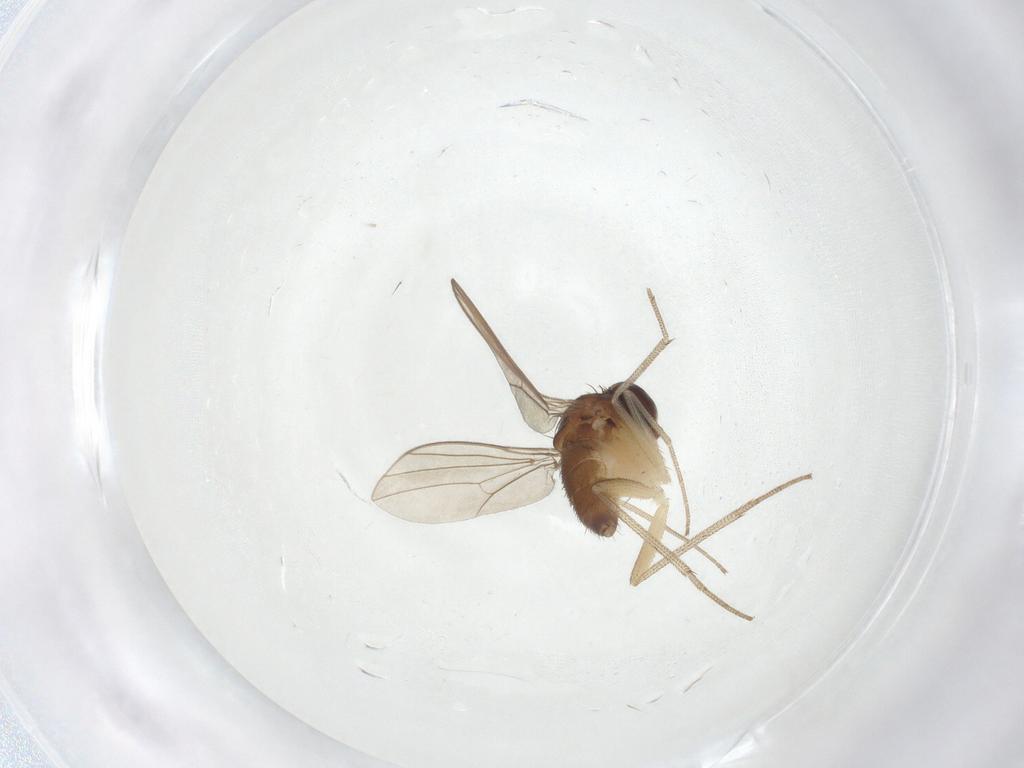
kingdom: Animalia
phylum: Arthropoda
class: Insecta
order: Diptera
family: Dolichopodidae
